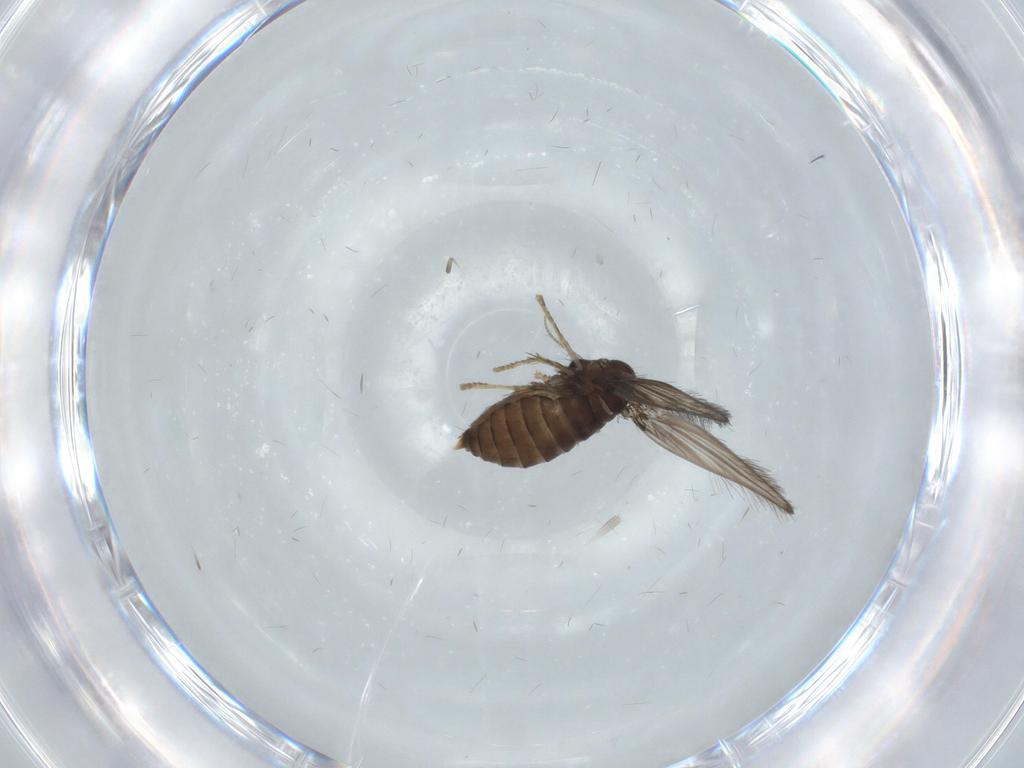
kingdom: Animalia
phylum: Arthropoda
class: Insecta
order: Diptera
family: Psychodidae
